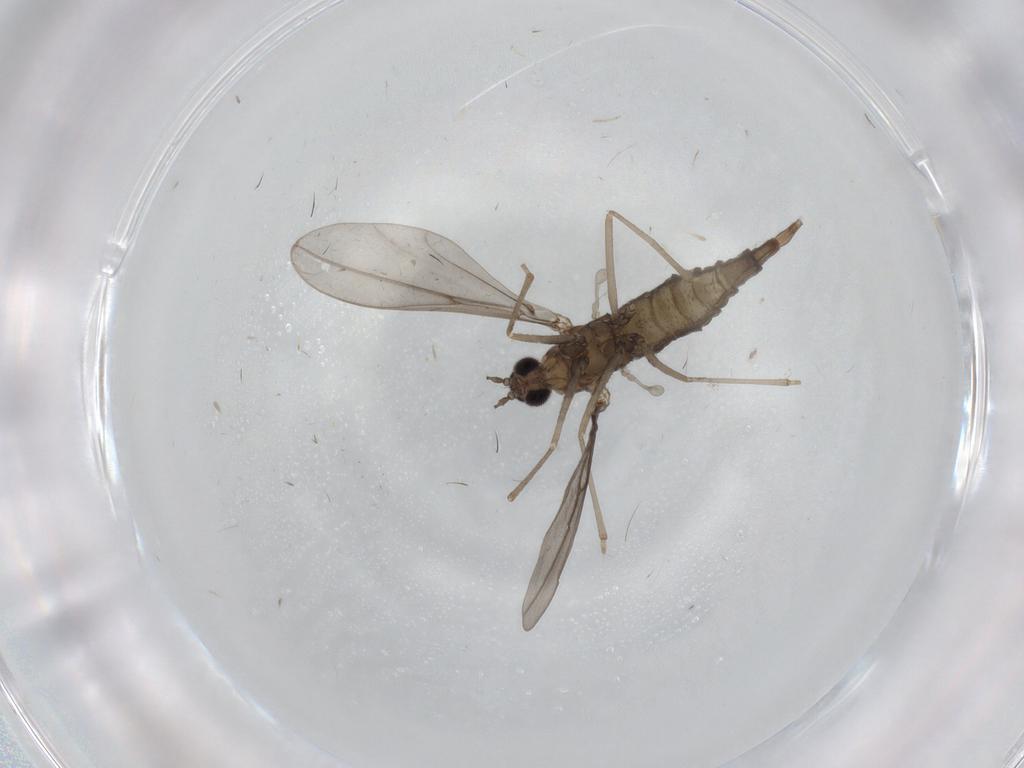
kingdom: Animalia
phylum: Arthropoda
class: Insecta
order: Diptera
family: Cecidomyiidae
